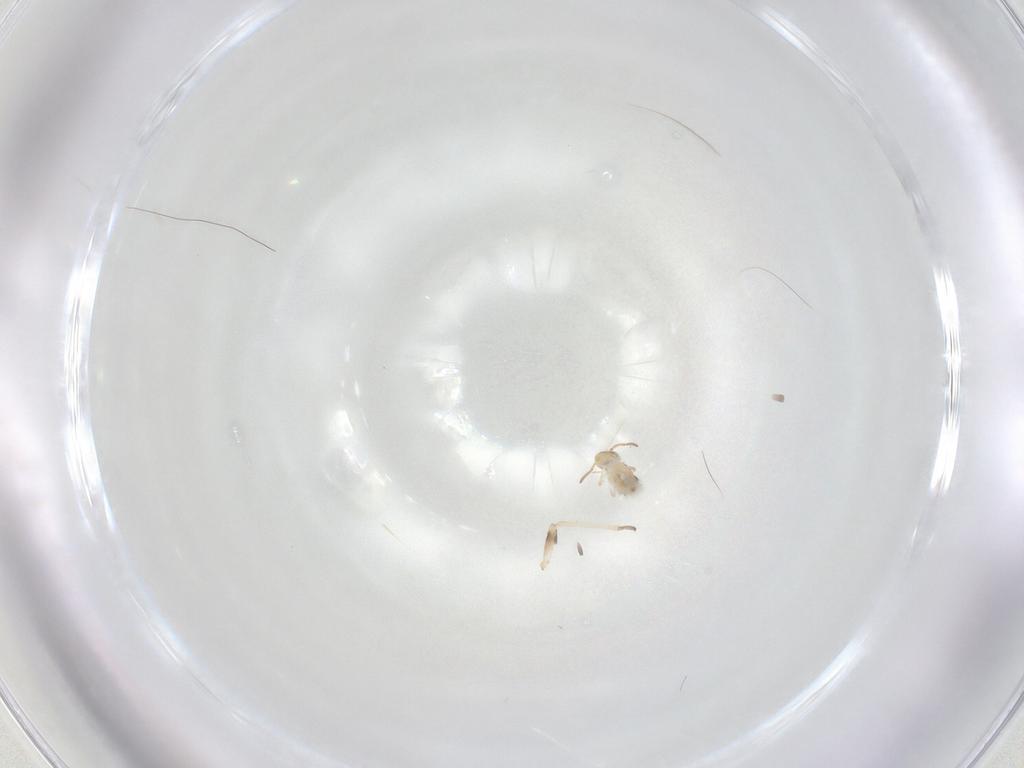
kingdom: Animalia
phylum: Arthropoda
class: Collembola
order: Symphypleona
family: Bourletiellidae
